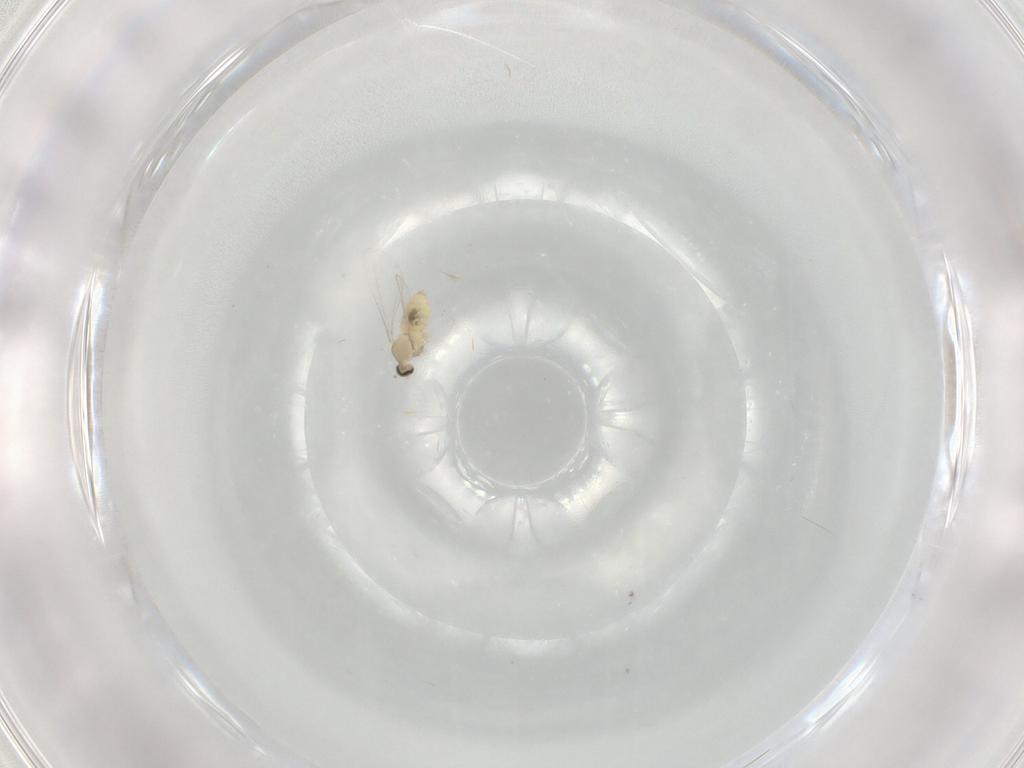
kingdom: Animalia
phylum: Arthropoda
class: Insecta
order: Diptera
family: Cecidomyiidae
